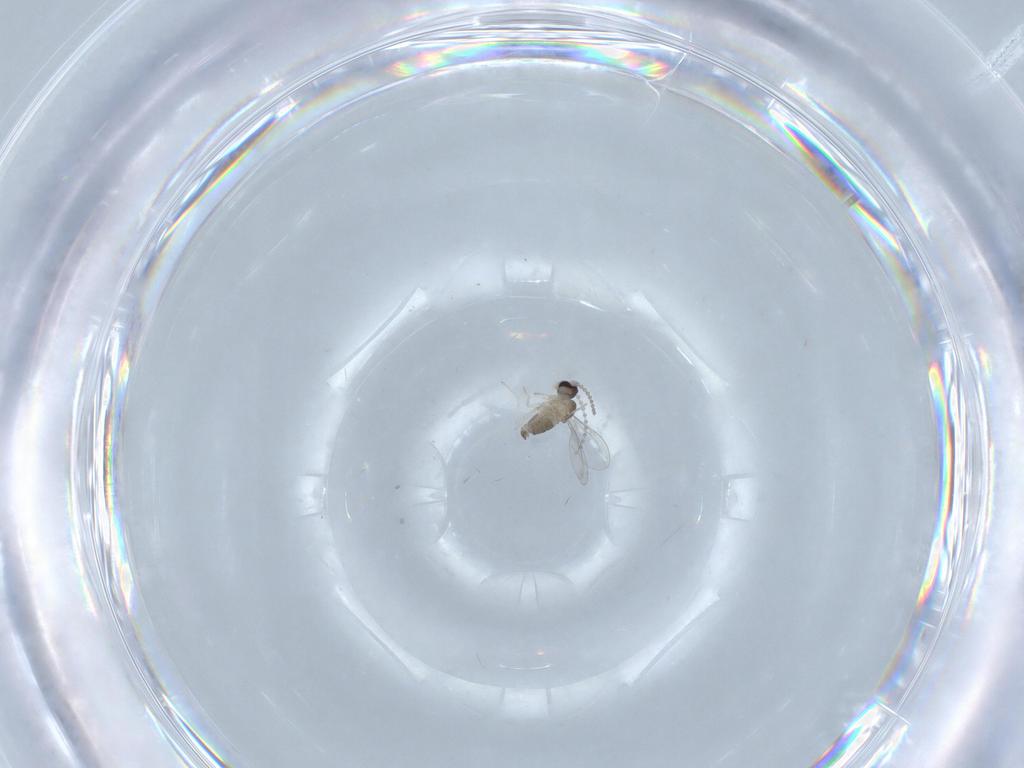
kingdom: Animalia
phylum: Arthropoda
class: Insecta
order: Diptera
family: Cecidomyiidae
